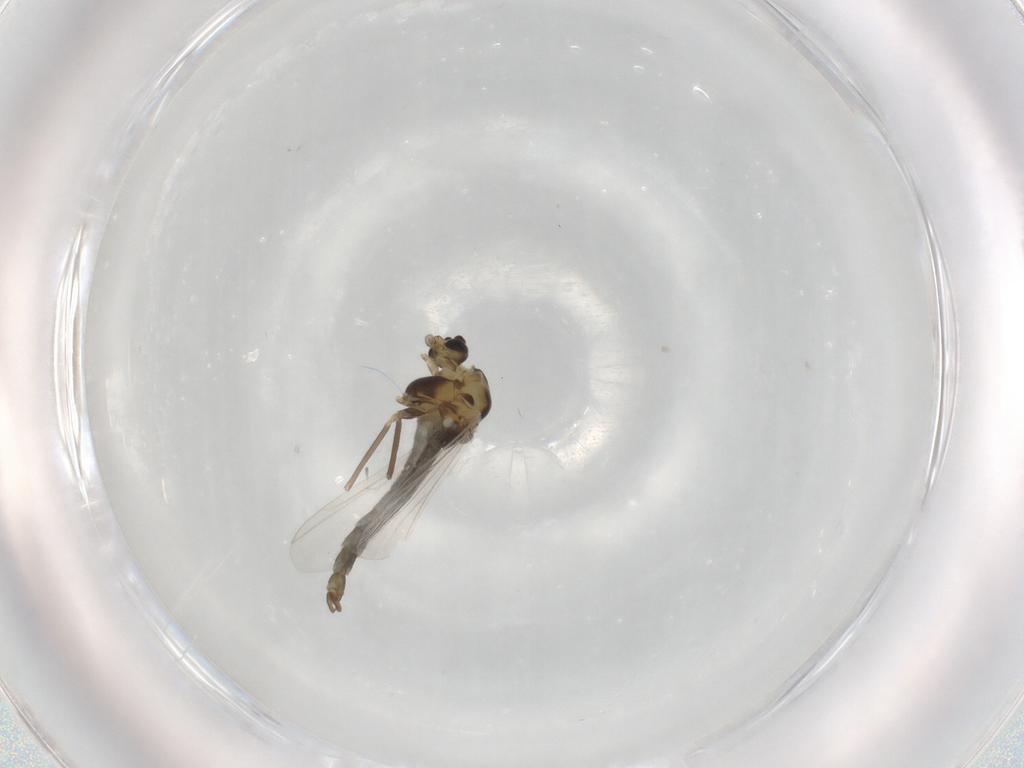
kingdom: Animalia
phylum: Arthropoda
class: Insecta
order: Diptera
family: Chironomidae
